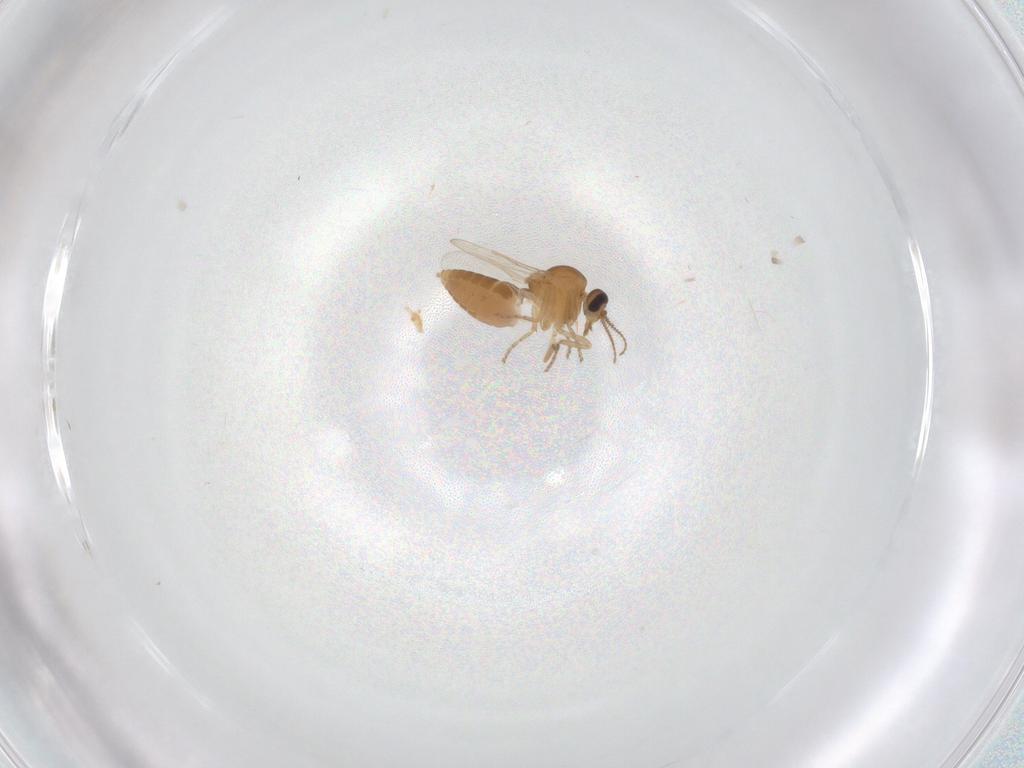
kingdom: Animalia
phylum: Arthropoda
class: Insecta
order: Diptera
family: Ceratopogonidae
